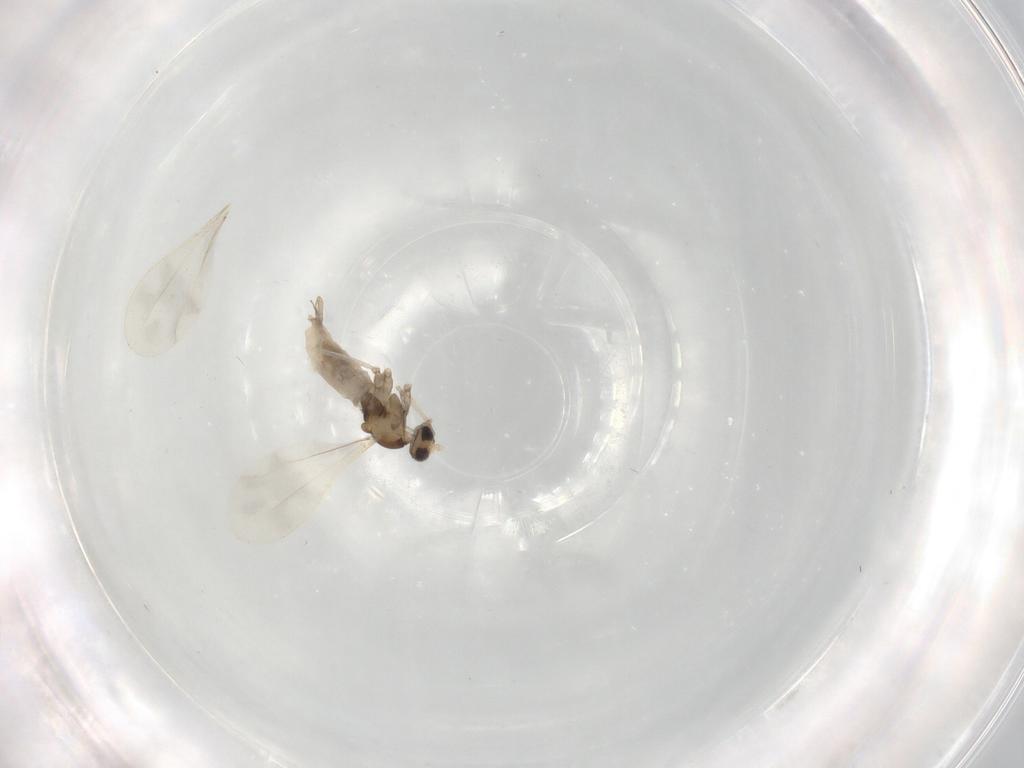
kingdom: Animalia
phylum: Arthropoda
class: Insecta
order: Diptera
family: Cecidomyiidae
